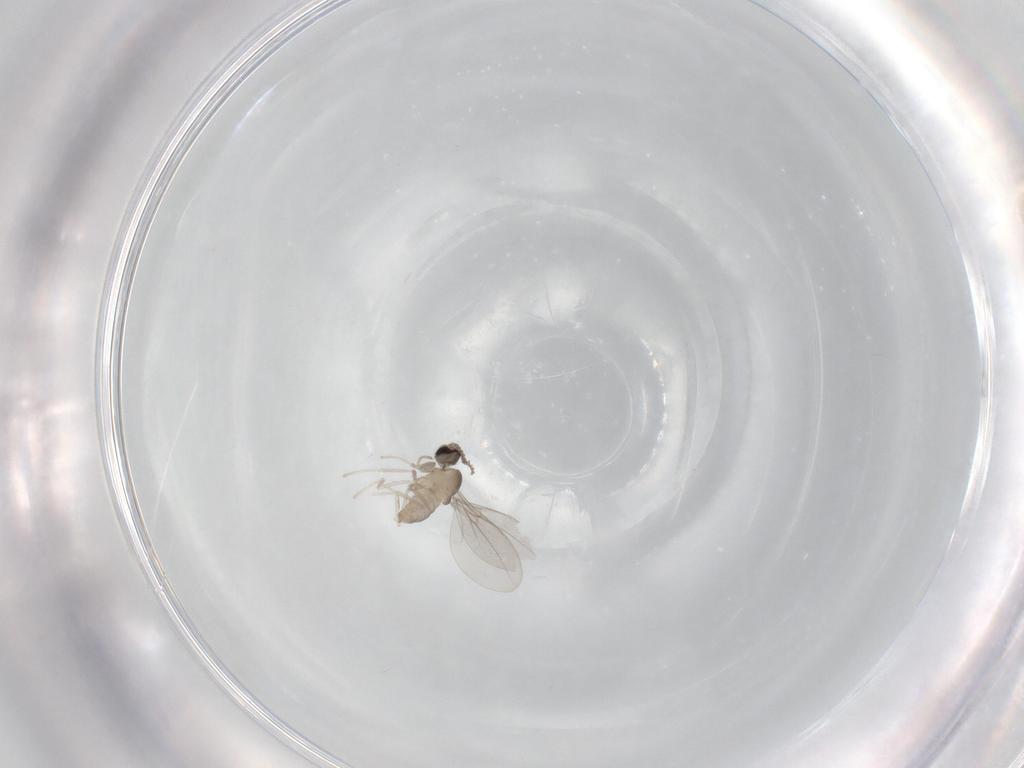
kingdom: Animalia
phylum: Arthropoda
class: Insecta
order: Diptera
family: Cecidomyiidae
